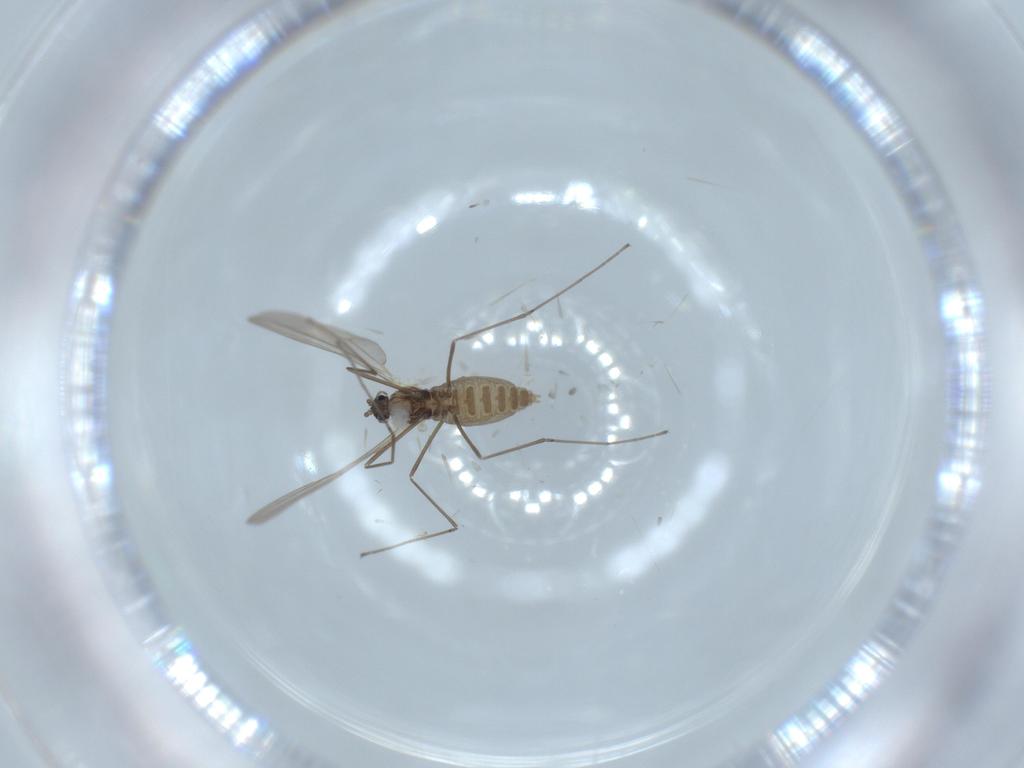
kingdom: Animalia
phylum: Arthropoda
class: Insecta
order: Diptera
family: Cecidomyiidae
